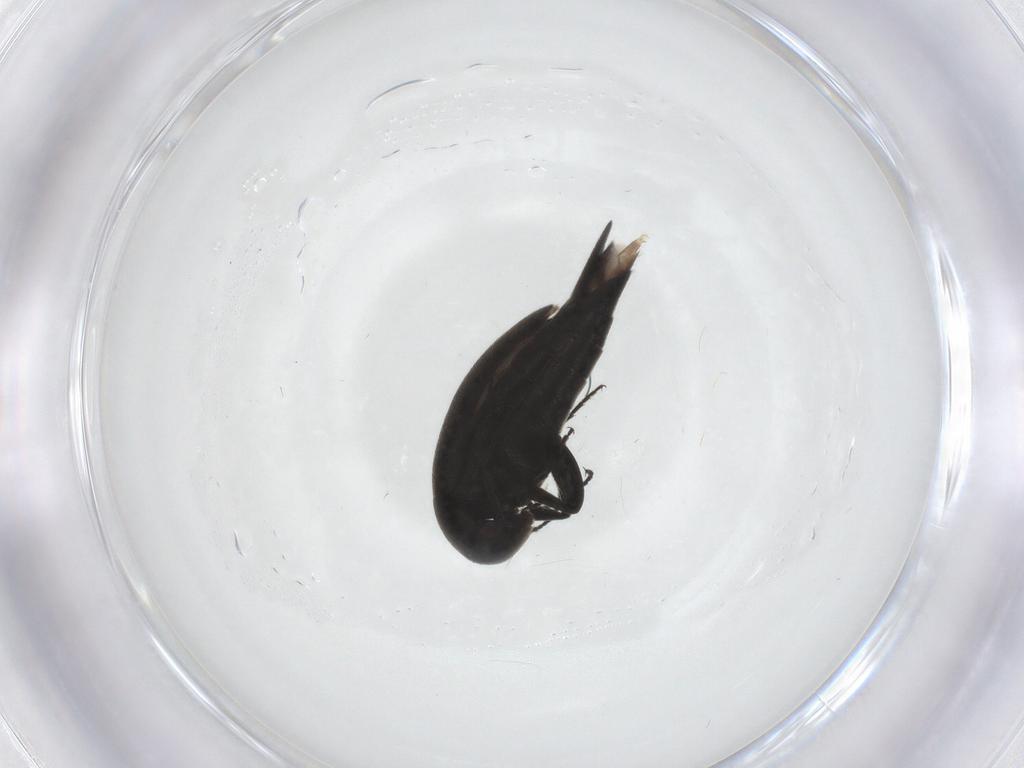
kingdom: Animalia
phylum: Arthropoda
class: Insecta
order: Coleoptera
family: Mordellidae
